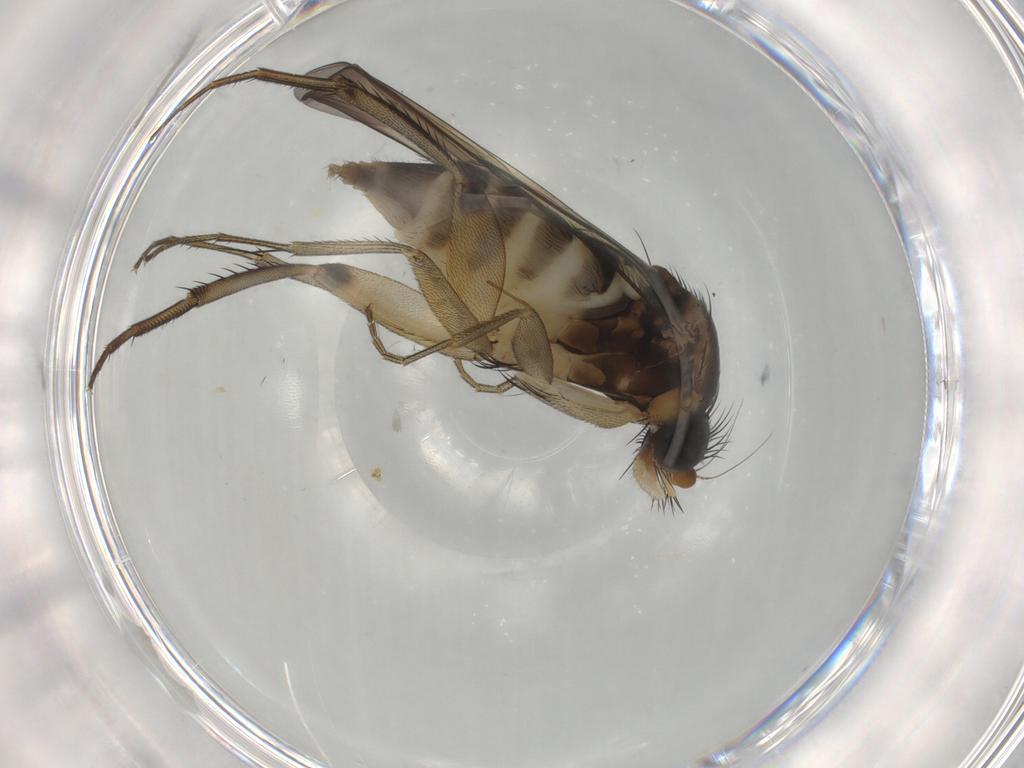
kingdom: Animalia
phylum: Arthropoda
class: Insecta
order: Diptera
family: Phoridae
